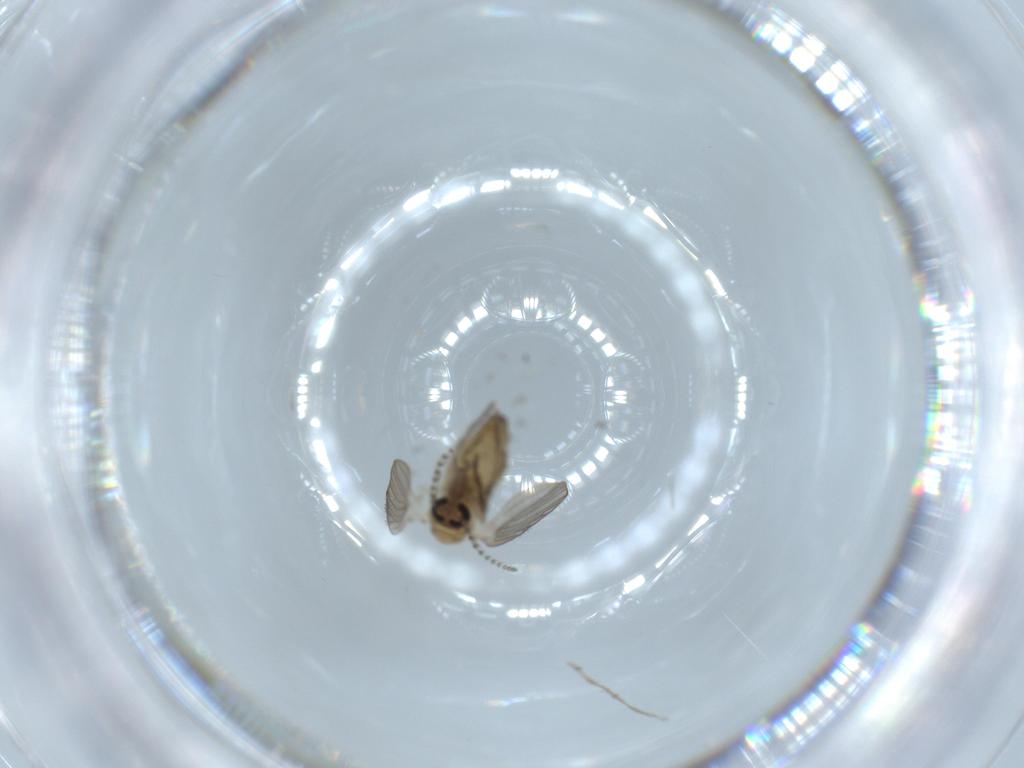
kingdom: Animalia
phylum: Arthropoda
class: Insecta
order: Diptera
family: Psychodidae
